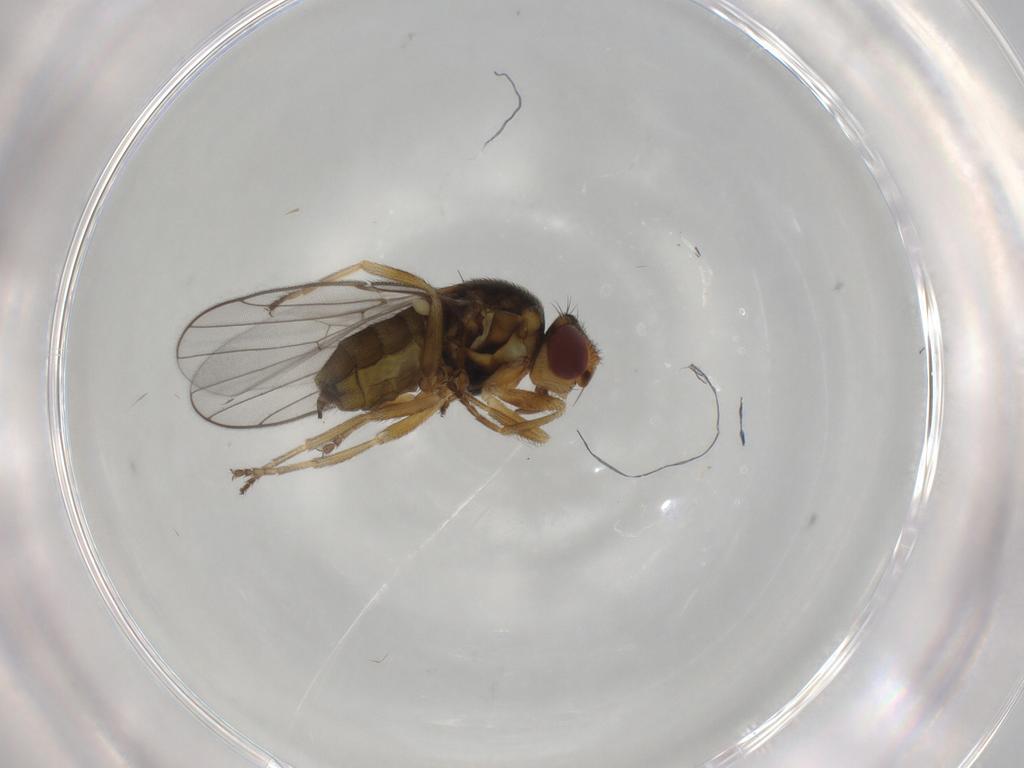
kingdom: Animalia
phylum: Arthropoda
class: Insecta
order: Diptera
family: Chloropidae
